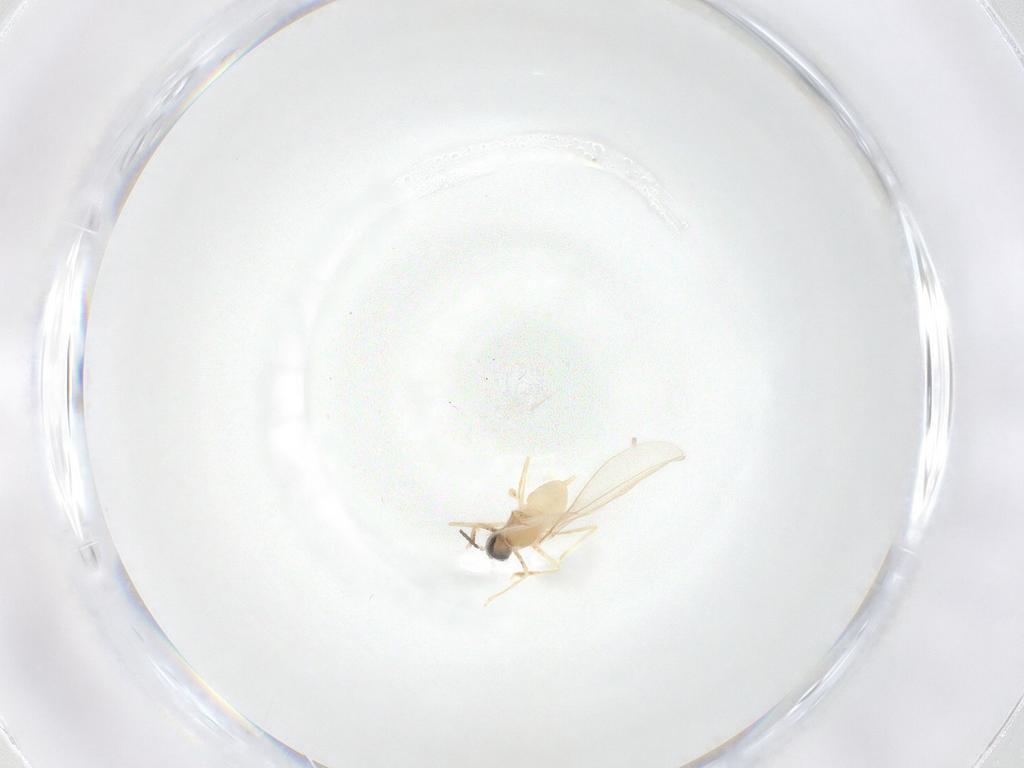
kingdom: Animalia
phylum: Arthropoda
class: Insecta
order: Diptera
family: Cecidomyiidae
